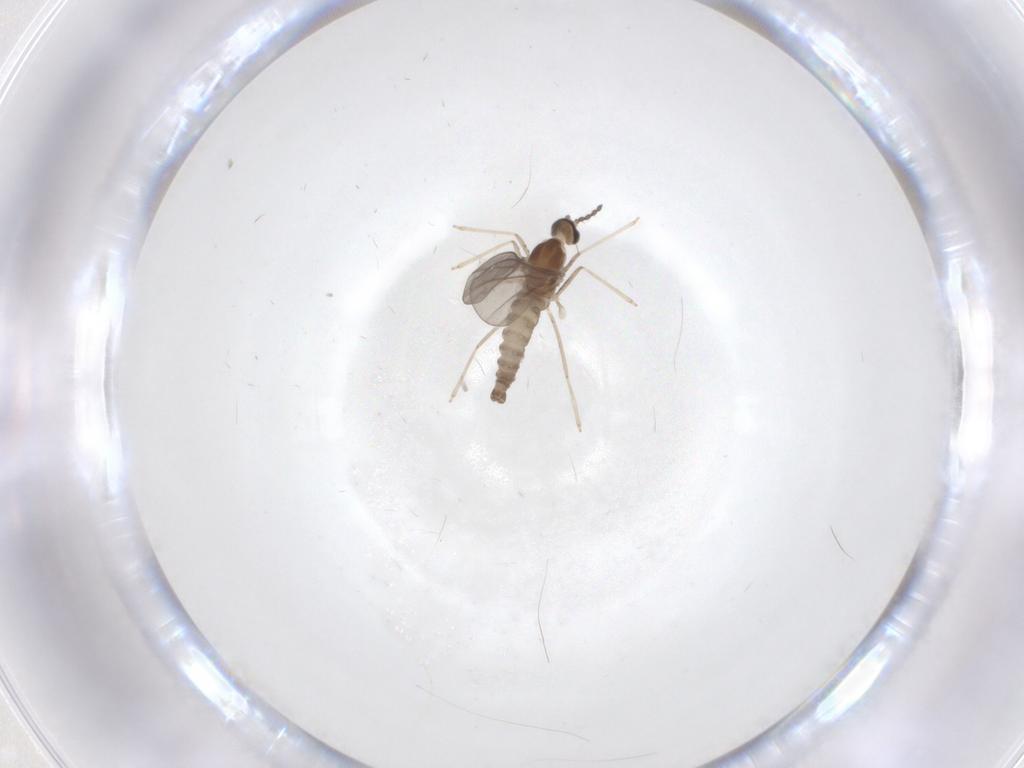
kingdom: Animalia
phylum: Arthropoda
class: Insecta
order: Diptera
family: Cecidomyiidae
